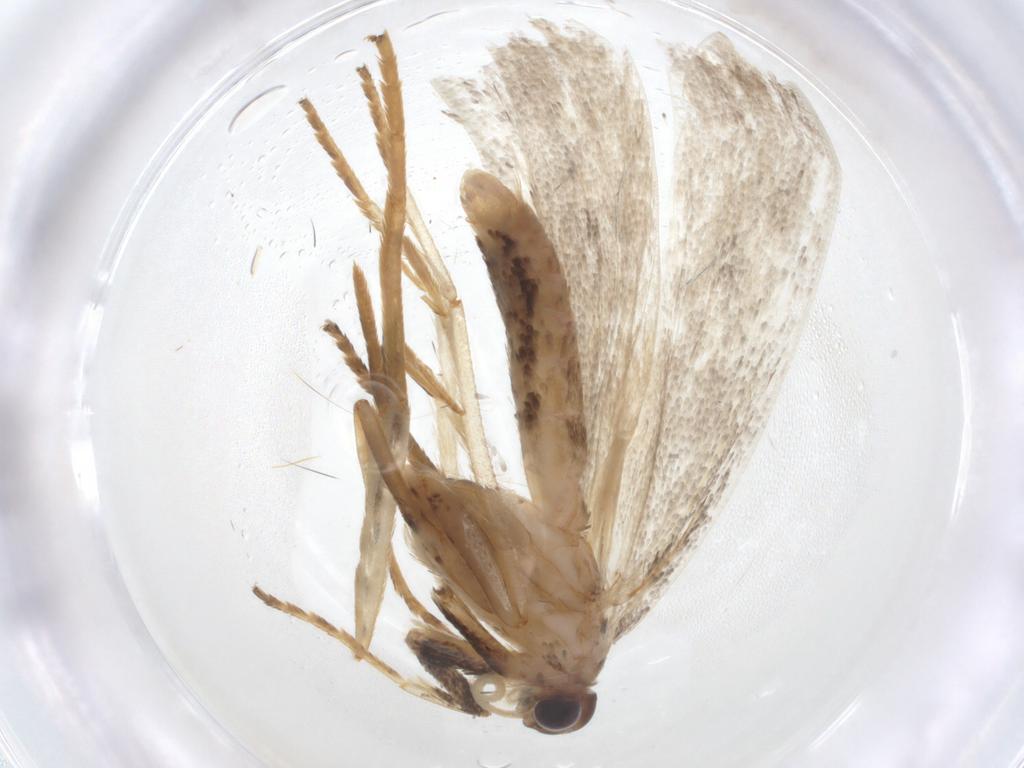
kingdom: Animalia
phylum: Arthropoda
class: Insecta
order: Lepidoptera
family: Depressariidae
